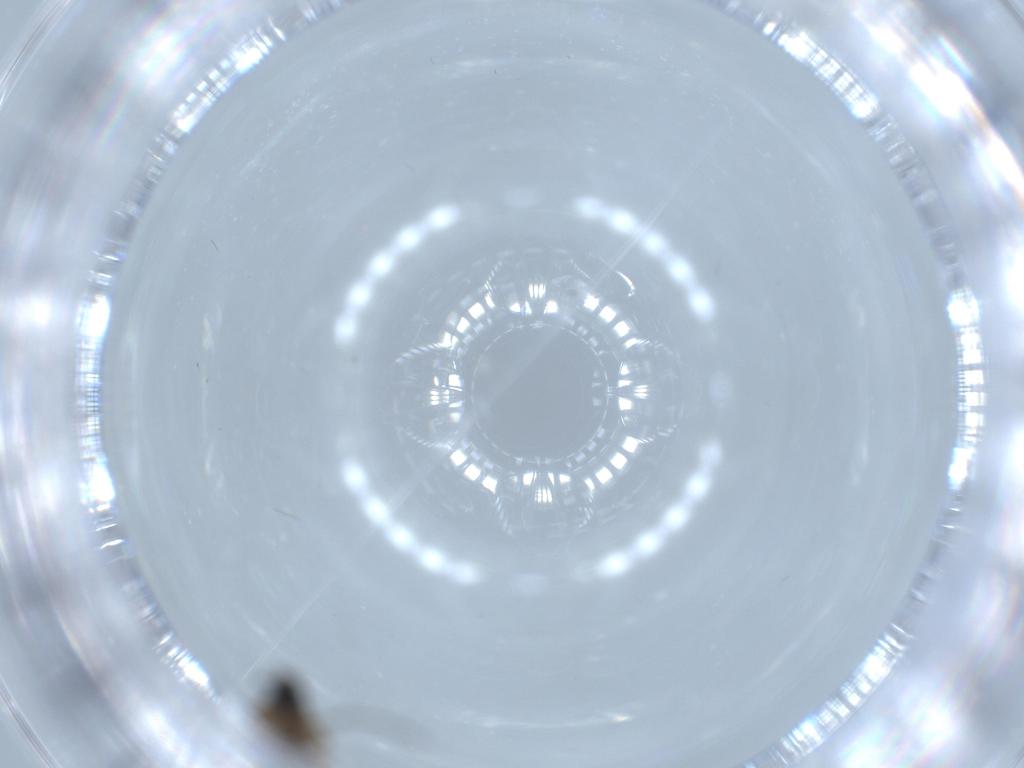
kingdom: Animalia
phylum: Arthropoda
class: Insecta
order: Diptera
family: Sciaridae
